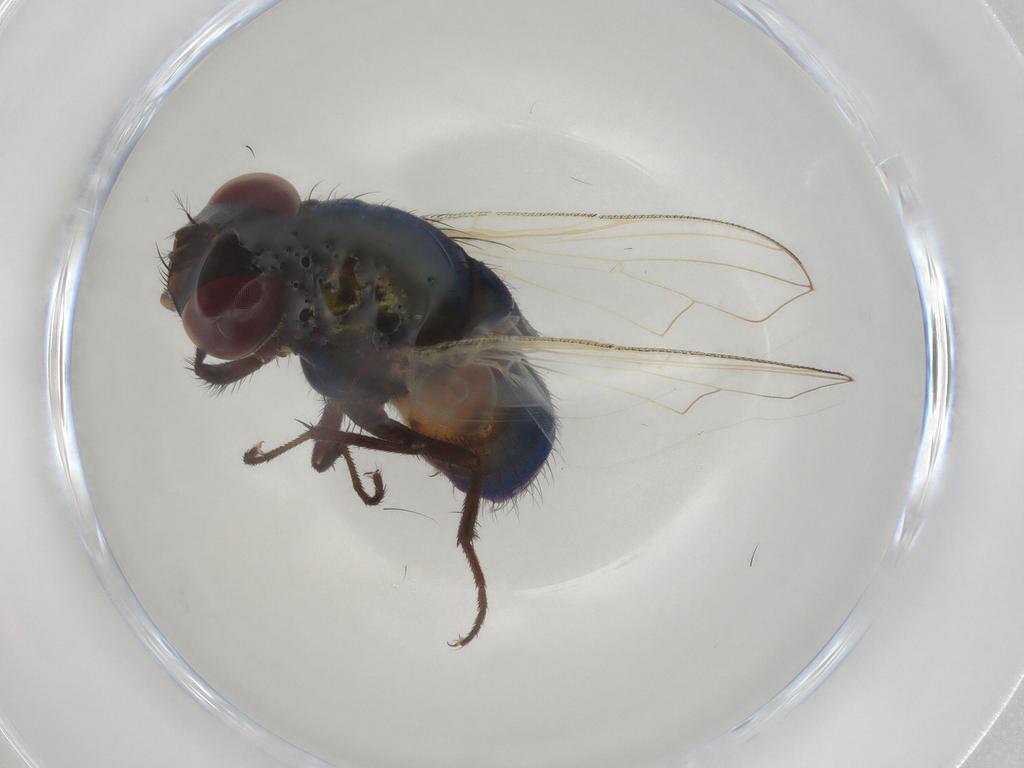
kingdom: Animalia
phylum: Arthropoda
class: Insecta
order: Diptera
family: Muscidae
